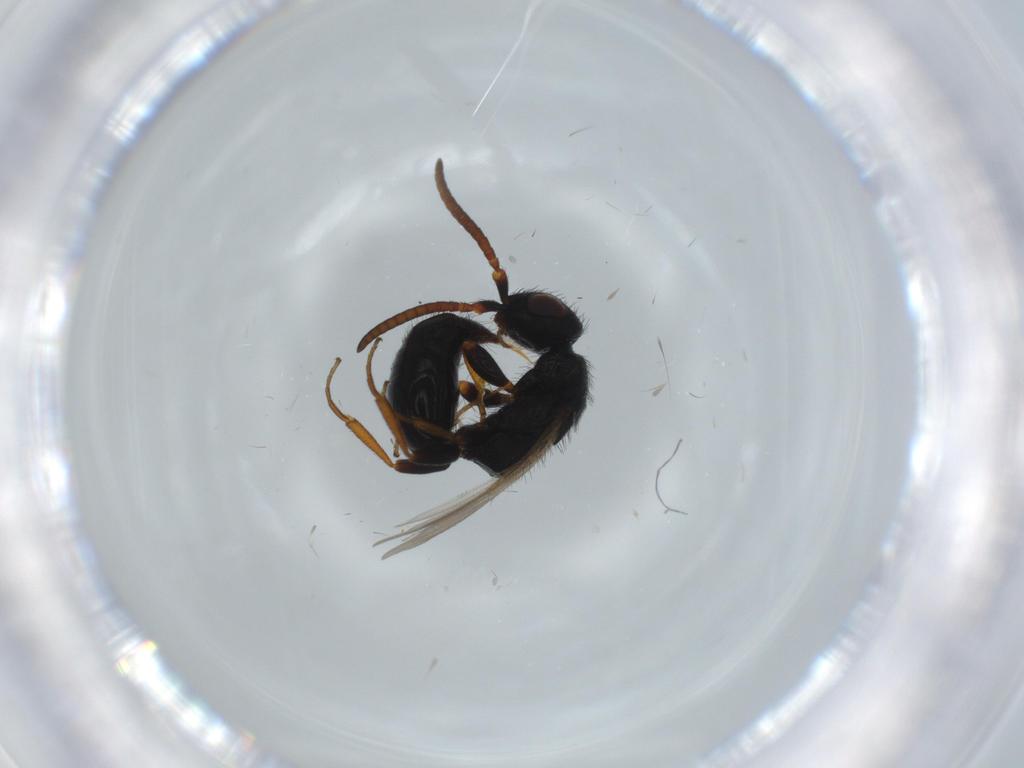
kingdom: Animalia
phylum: Arthropoda
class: Insecta
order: Hymenoptera
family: Bethylidae
